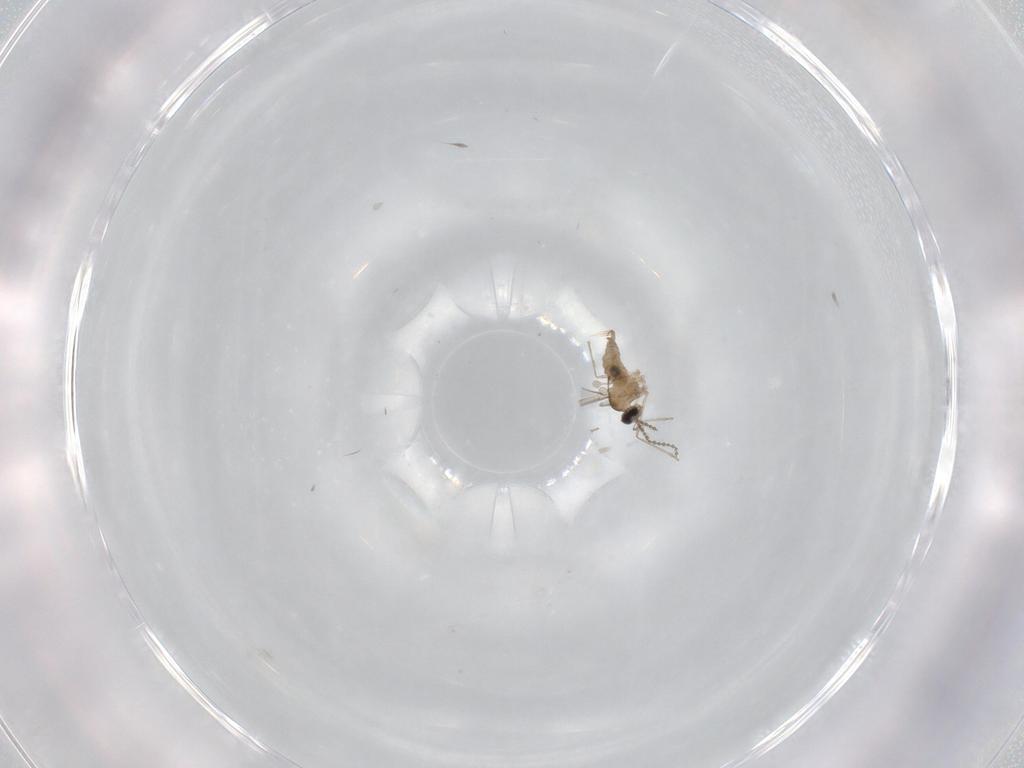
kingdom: Animalia
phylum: Arthropoda
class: Insecta
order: Diptera
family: Cecidomyiidae
